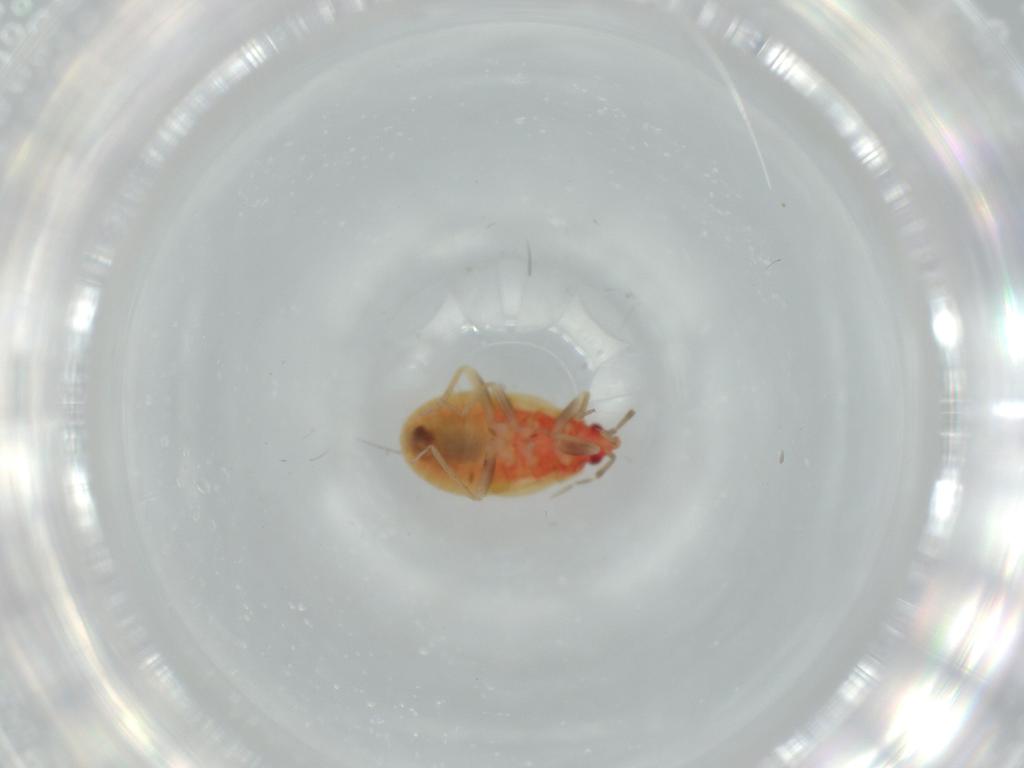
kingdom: Animalia
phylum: Arthropoda
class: Insecta
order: Hemiptera
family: Anthocoridae
